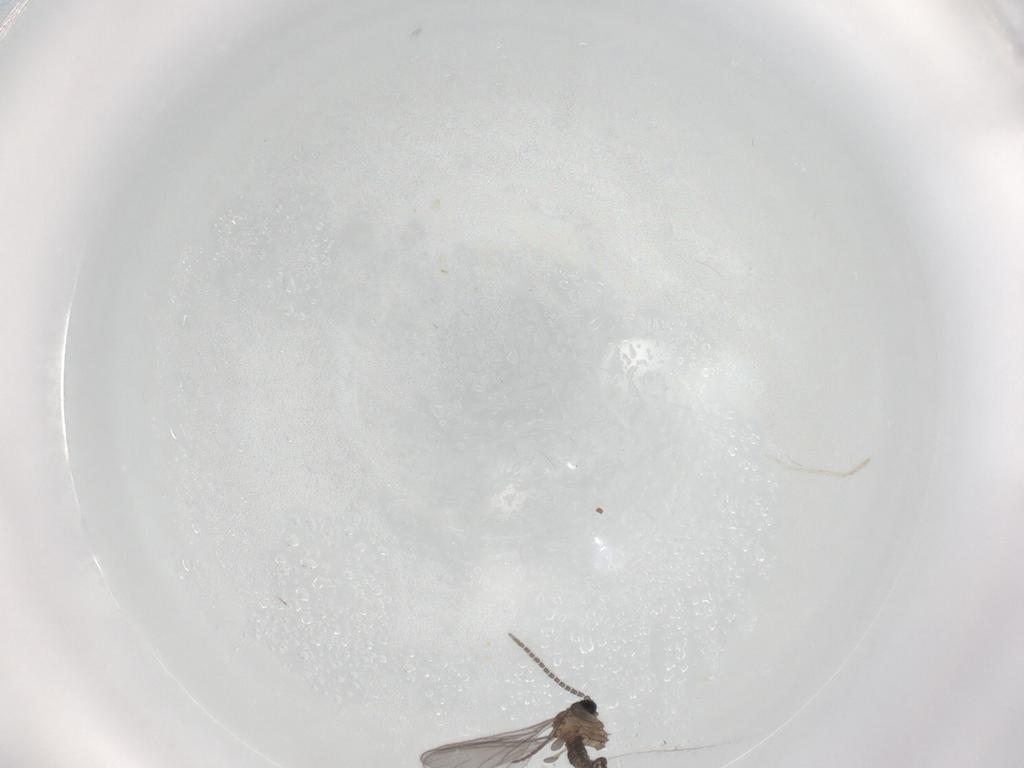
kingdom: Animalia
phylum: Arthropoda
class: Insecta
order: Diptera
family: Sciaridae
